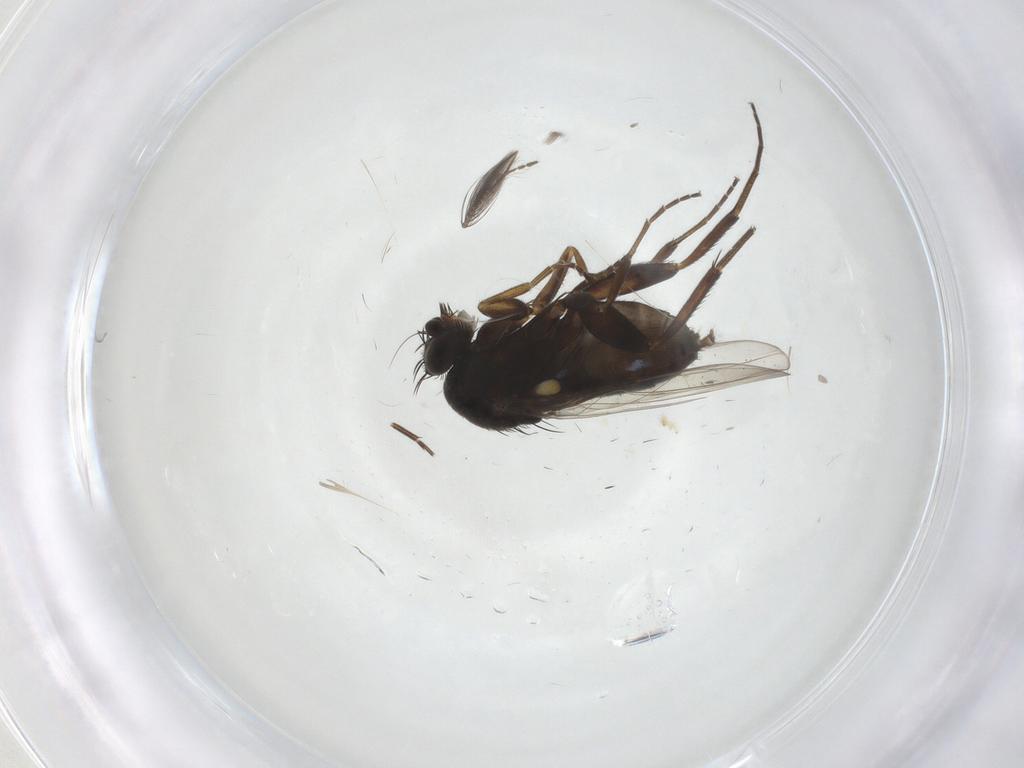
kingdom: Animalia
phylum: Arthropoda
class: Insecta
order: Diptera
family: Phoridae
